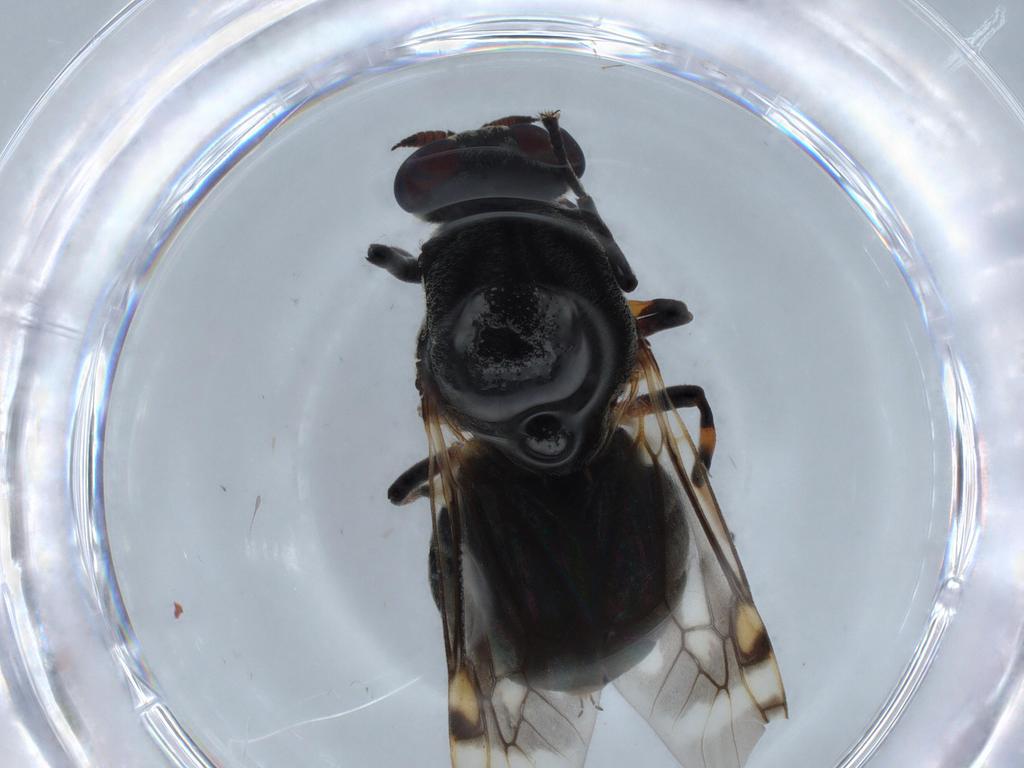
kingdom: Animalia
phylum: Arthropoda
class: Insecta
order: Diptera
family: Stratiomyidae
